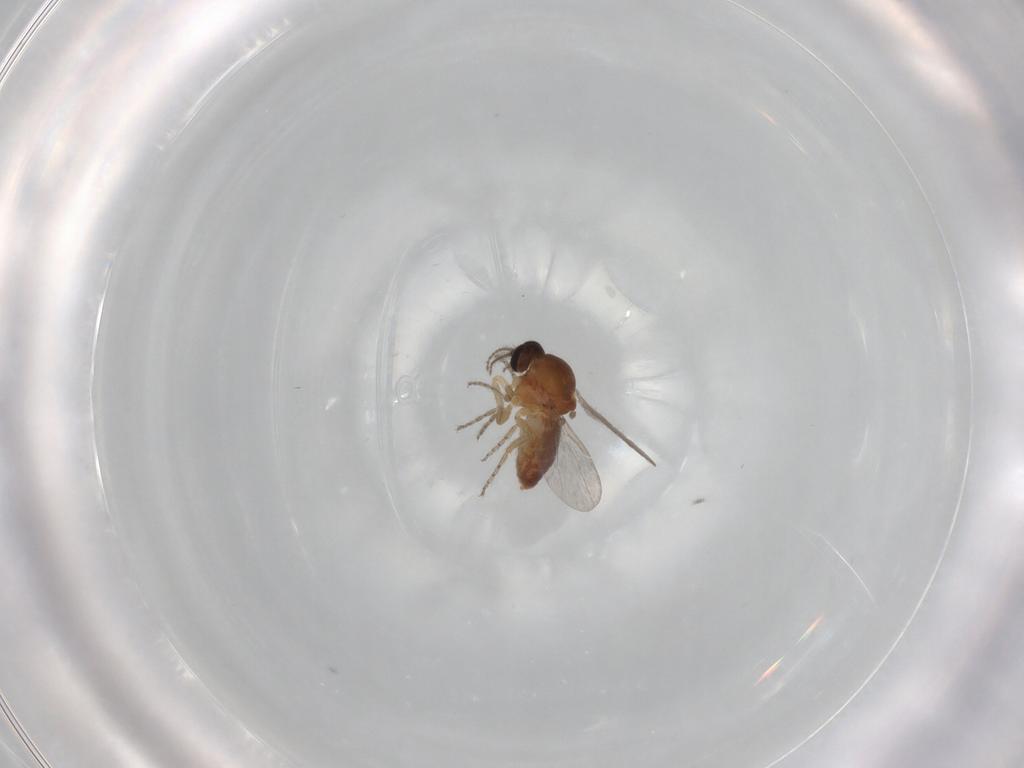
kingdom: Animalia
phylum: Arthropoda
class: Insecta
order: Diptera
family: Ceratopogonidae
